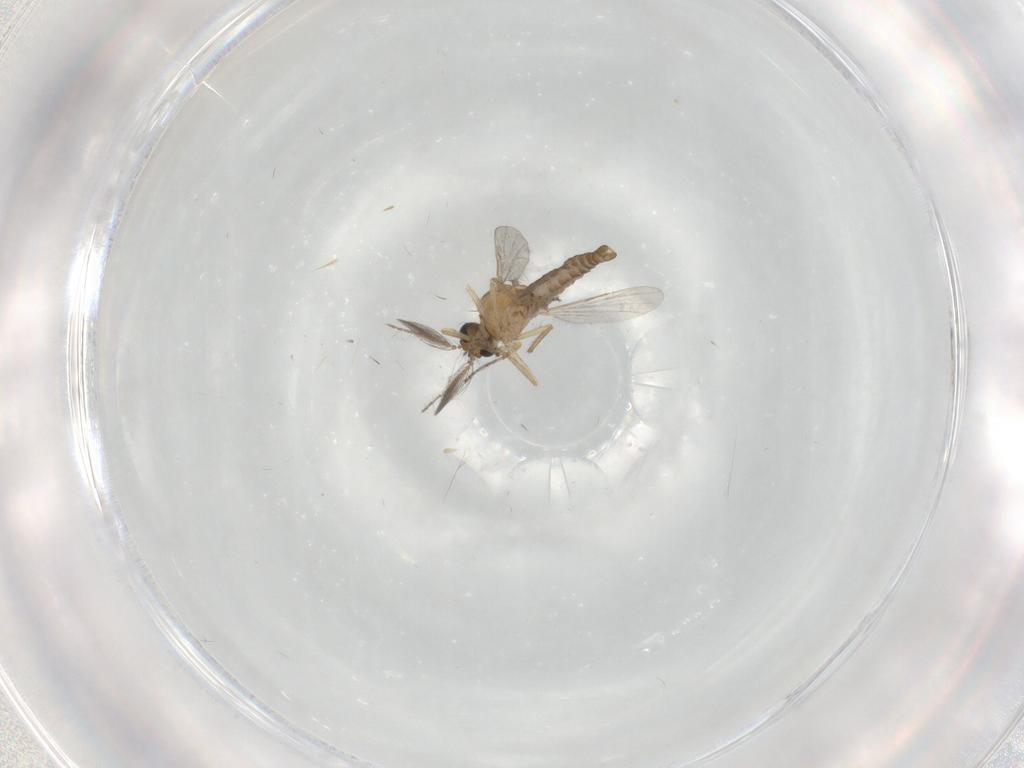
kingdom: Animalia
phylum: Arthropoda
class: Insecta
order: Diptera
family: Ceratopogonidae
